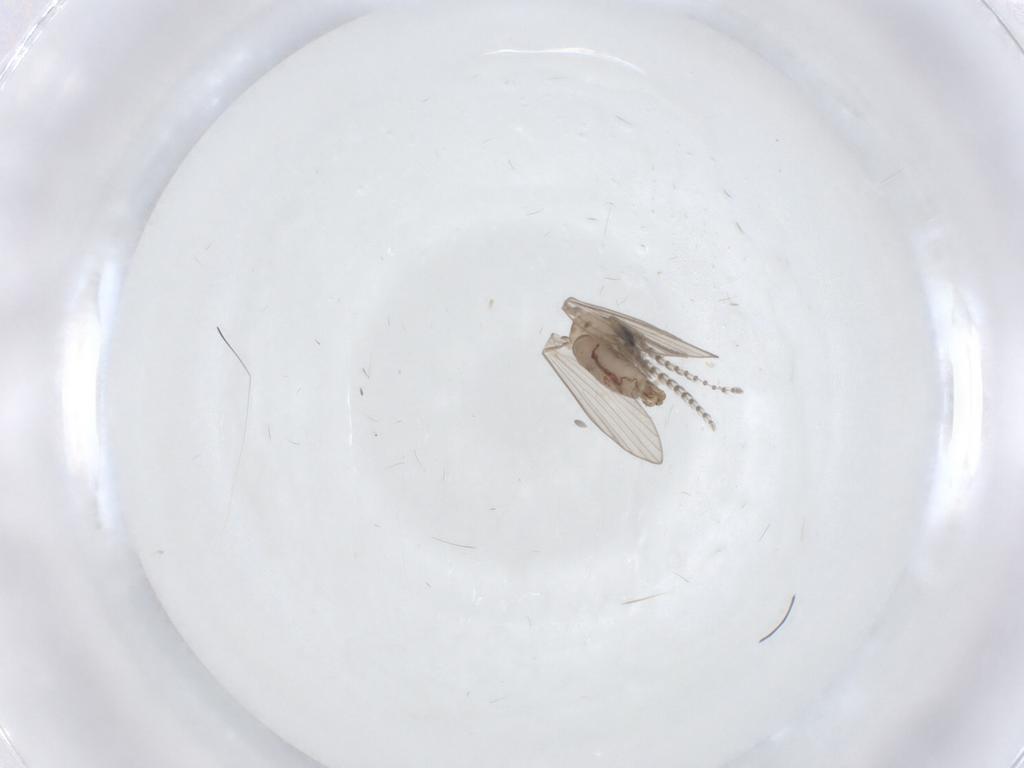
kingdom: Animalia
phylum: Arthropoda
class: Insecta
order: Diptera
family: Psychodidae
